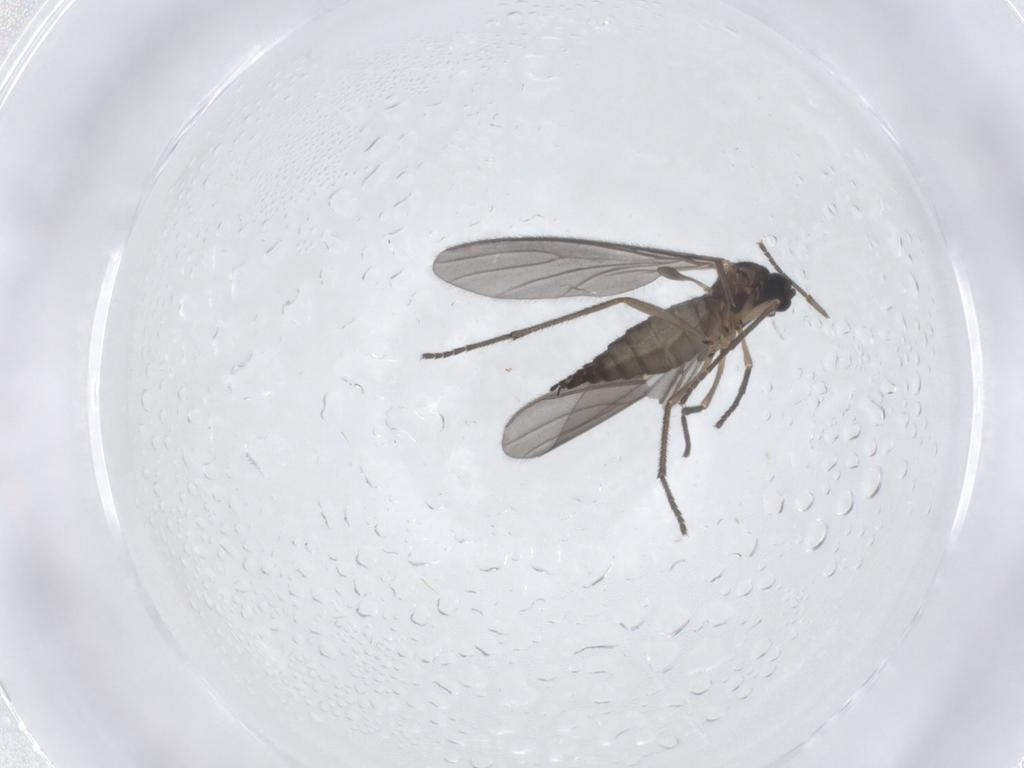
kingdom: Animalia
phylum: Arthropoda
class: Insecta
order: Diptera
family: Sciaridae
